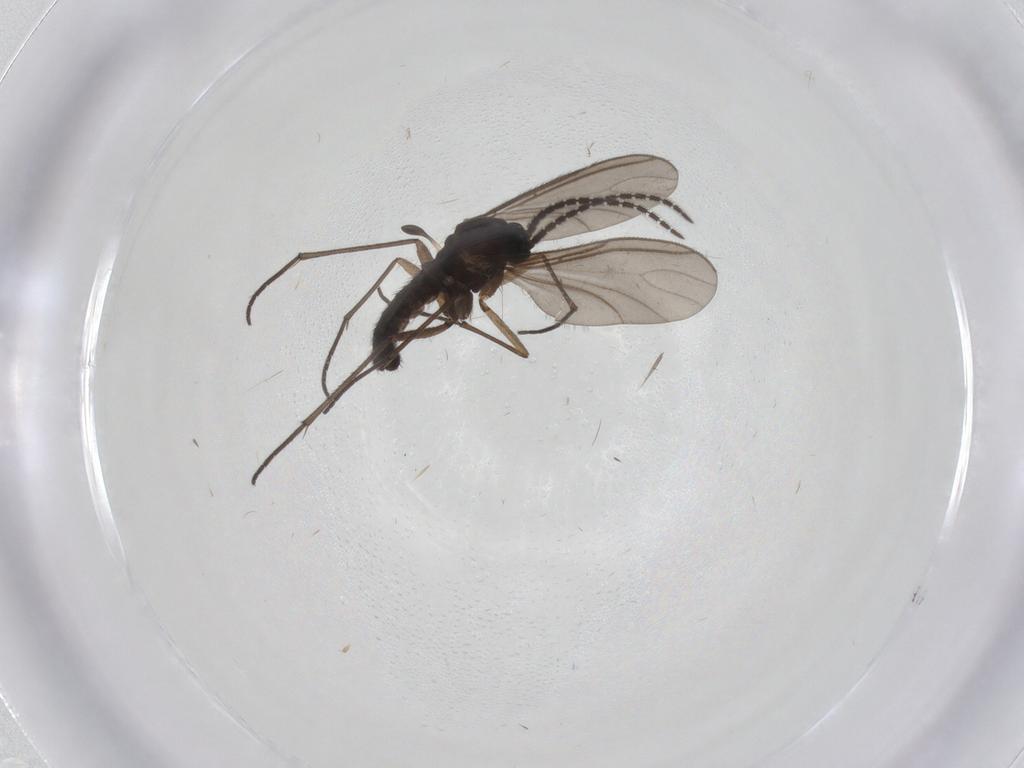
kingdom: Animalia
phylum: Arthropoda
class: Insecta
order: Diptera
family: Sciaridae
